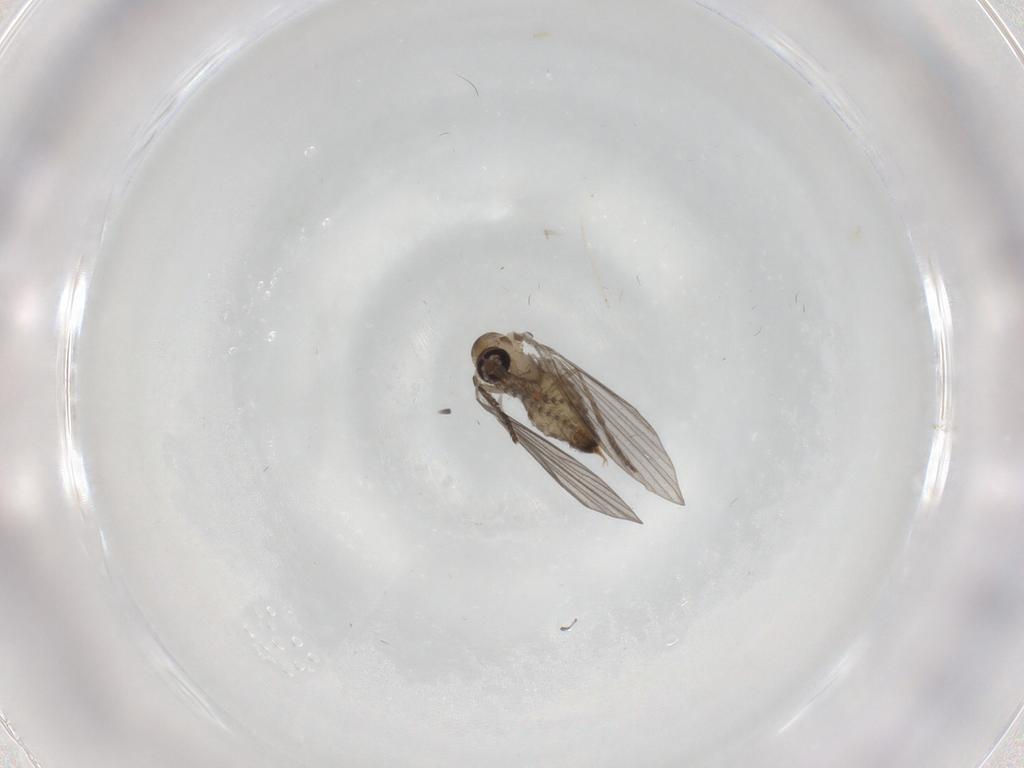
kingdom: Animalia
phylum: Arthropoda
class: Insecta
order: Diptera
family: Psychodidae
